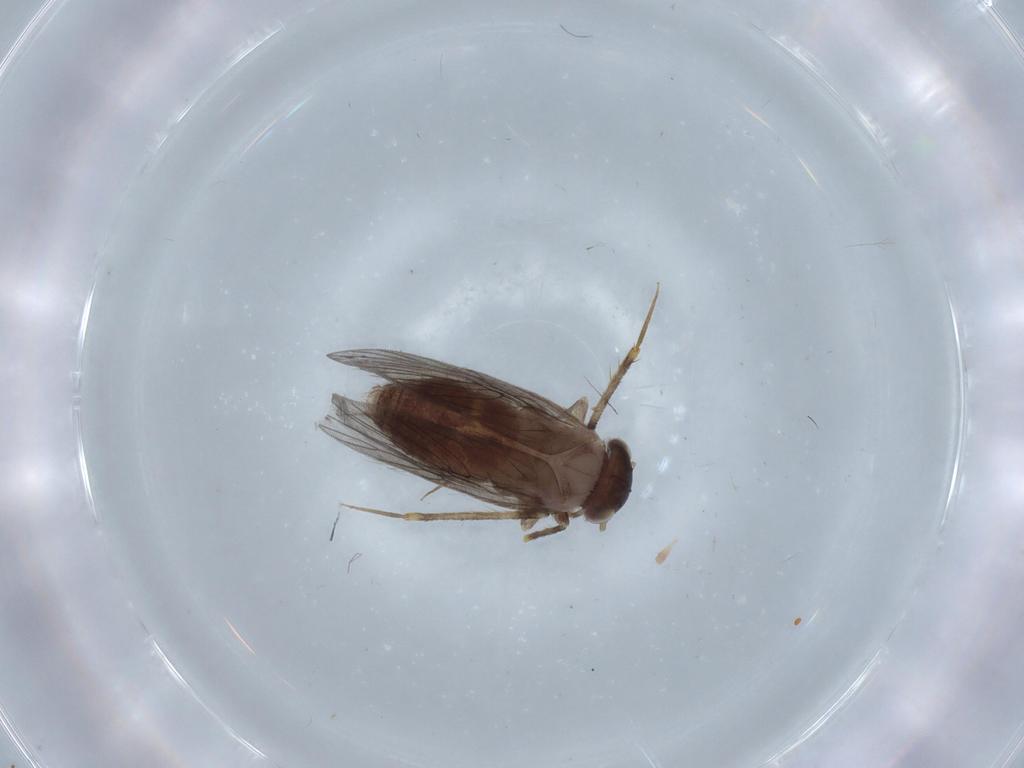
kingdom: Animalia
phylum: Arthropoda
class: Insecta
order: Psocodea
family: Lepidopsocidae
